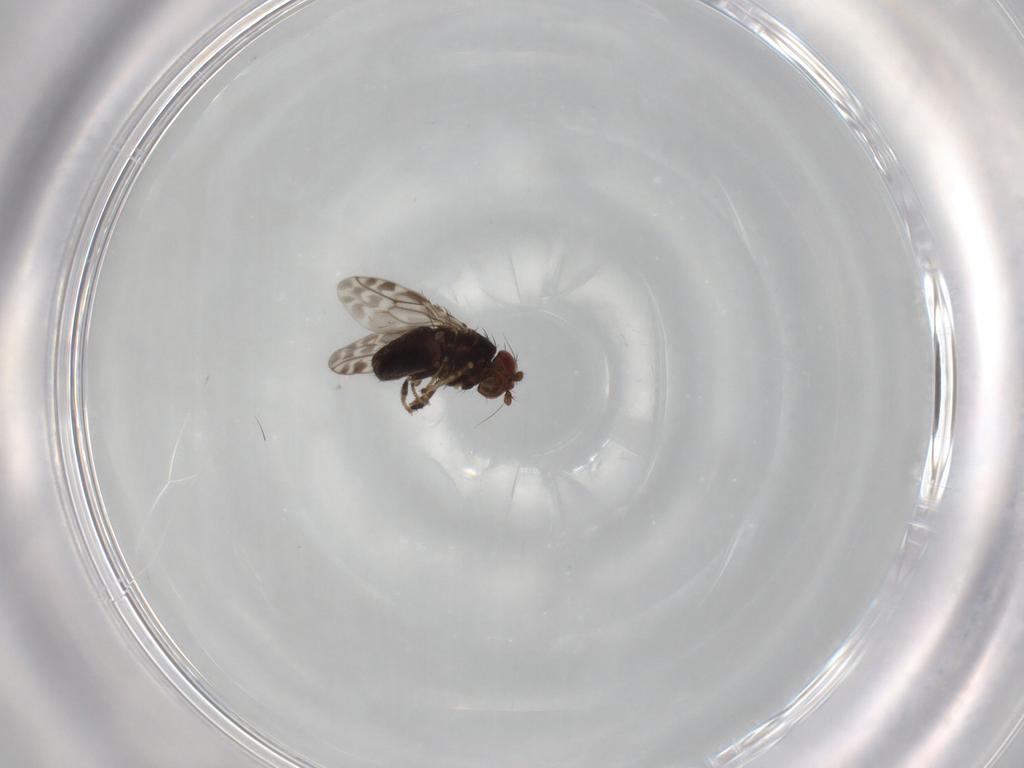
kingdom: Animalia
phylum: Arthropoda
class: Insecta
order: Diptera
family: Sphaeroceridae
